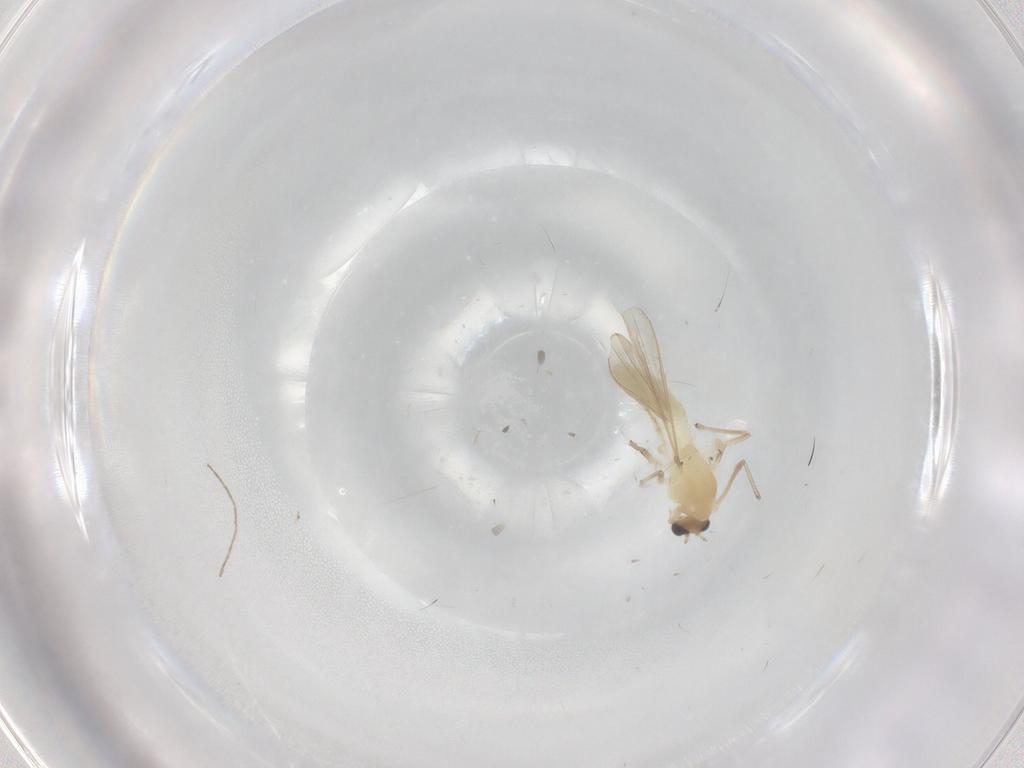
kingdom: Animalia
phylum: Arthropoda
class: Insecta
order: Diptera
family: Chironomidae
